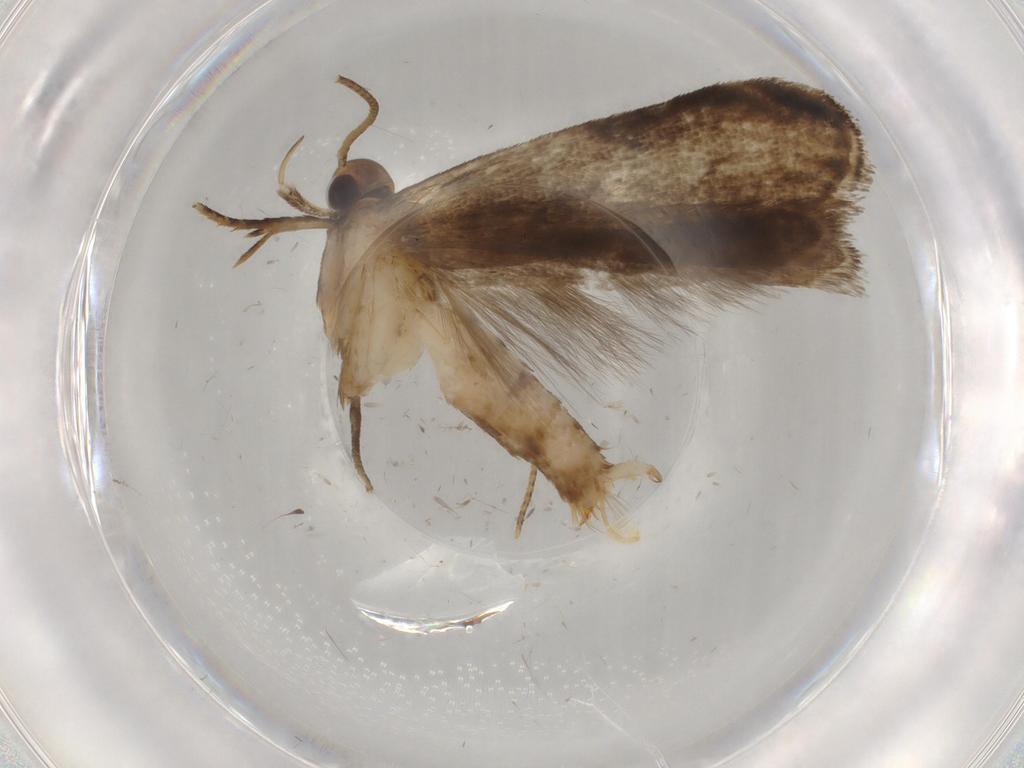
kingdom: Animalia
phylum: Arthropoda
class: Insecta
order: Lepidoptera
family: Gelechiidae
